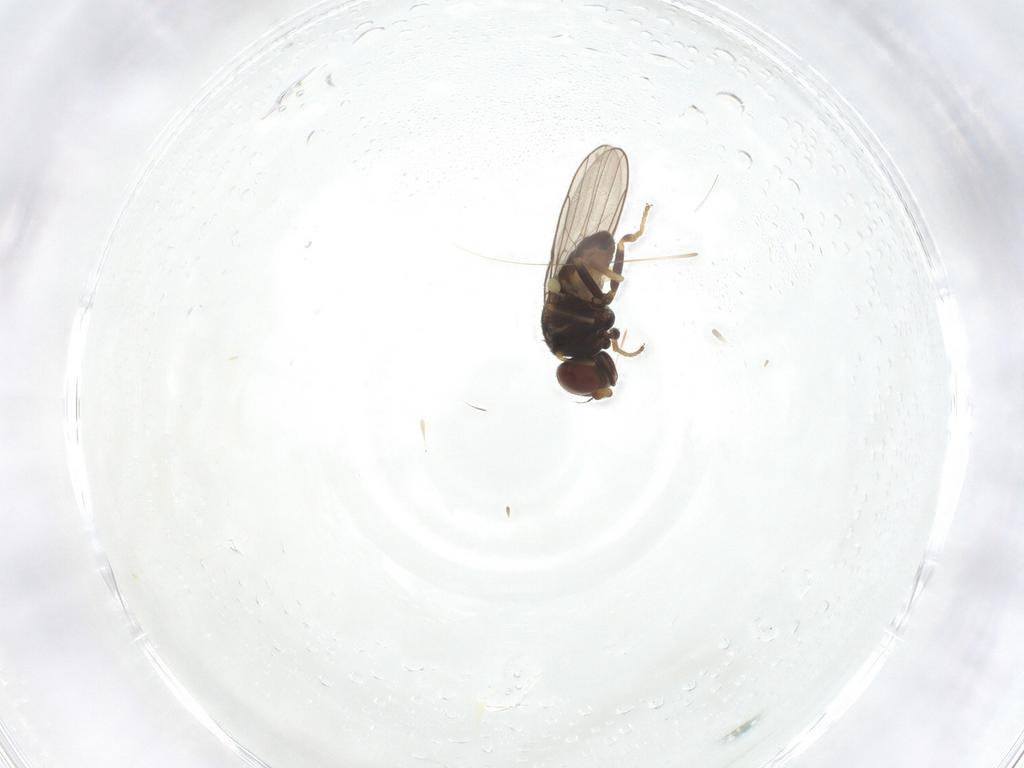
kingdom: Animalia
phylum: Arthropoda
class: Insecta
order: Diptera
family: Chloropidae
